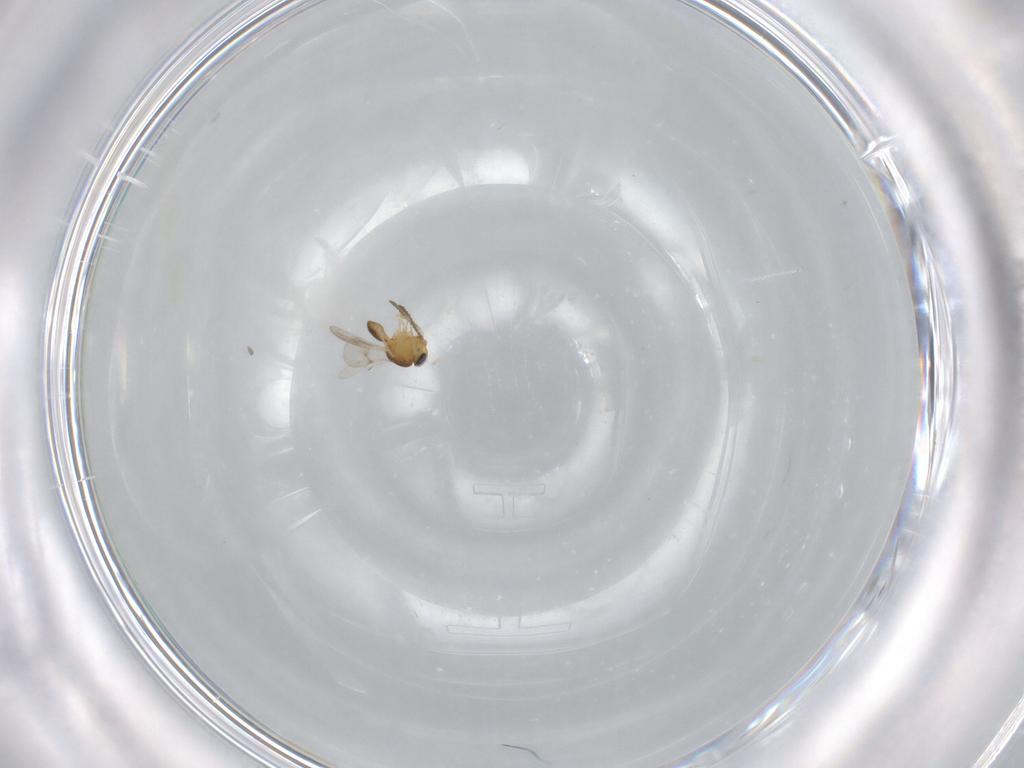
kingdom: Animalia
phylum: Arthropoda
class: Insecta
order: Hymenoptera
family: Scelionidae
